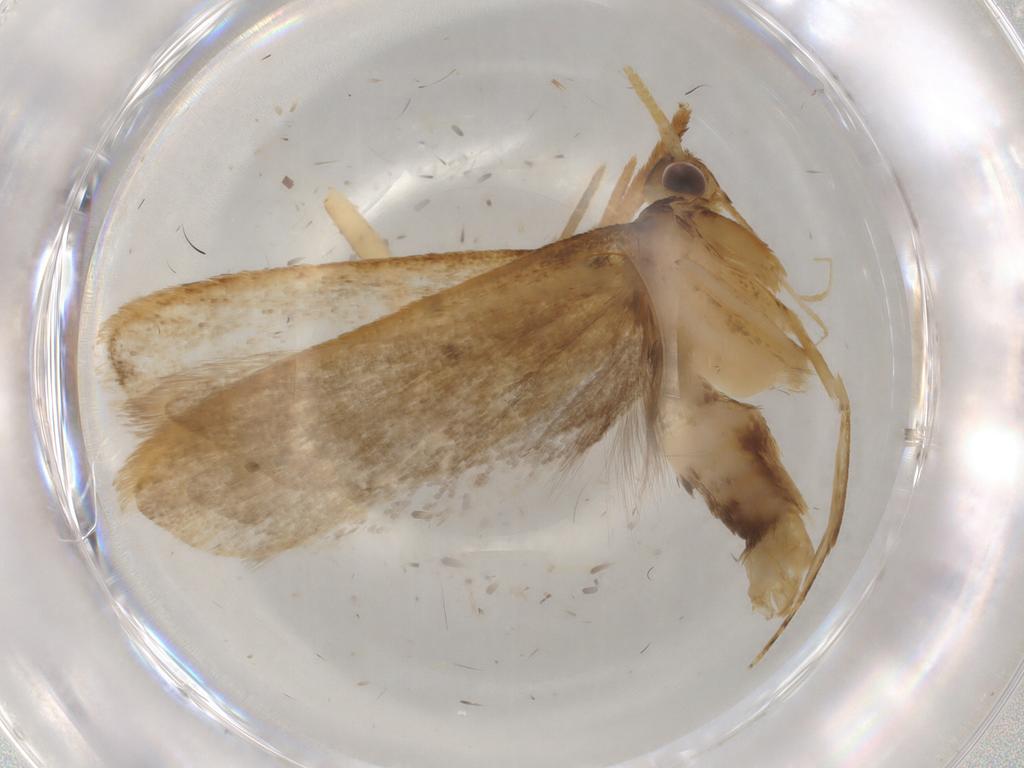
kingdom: Animalia
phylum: Arthropoda
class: Insecta
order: Lepidoptera
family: Lecithoceridae
